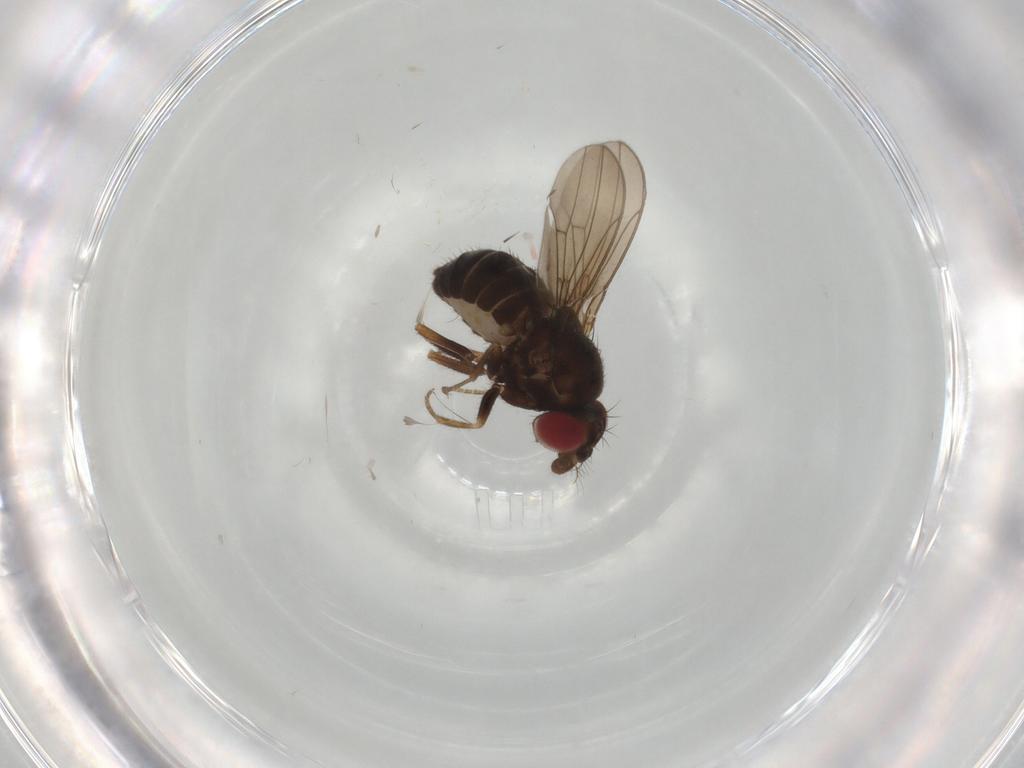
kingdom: Animalia
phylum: Arthropoda
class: Insecta
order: Diptera
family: Drosophilidae
